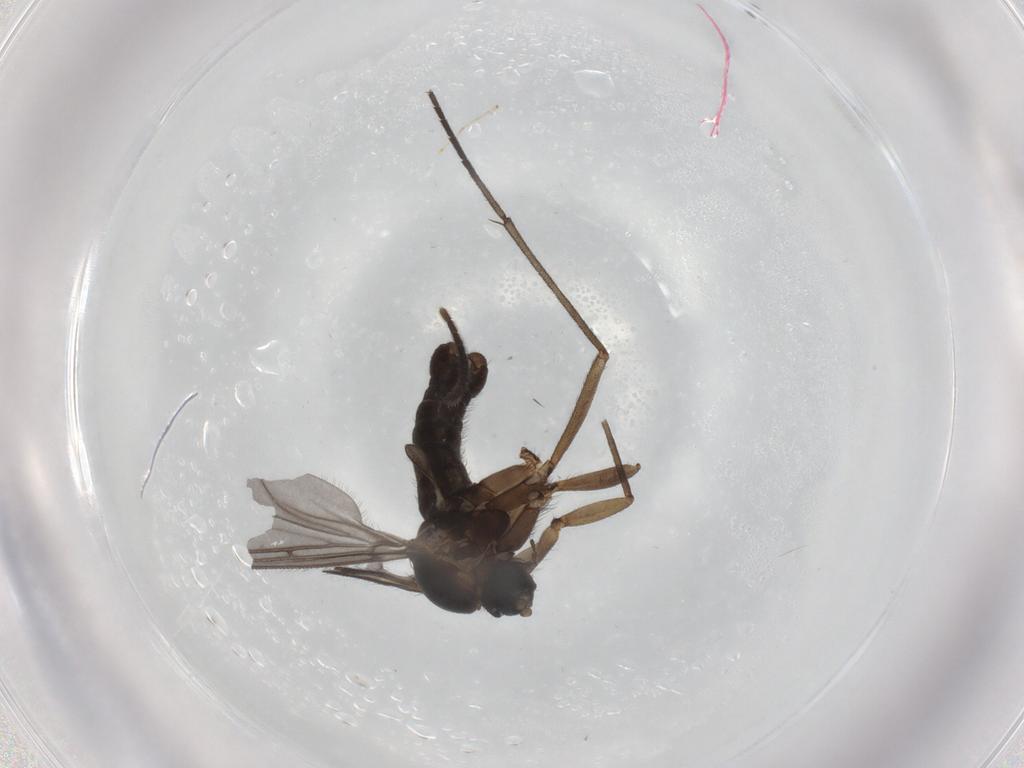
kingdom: Animalia
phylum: Arthropoda
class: Insecta
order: Diptera
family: Sciaridae
